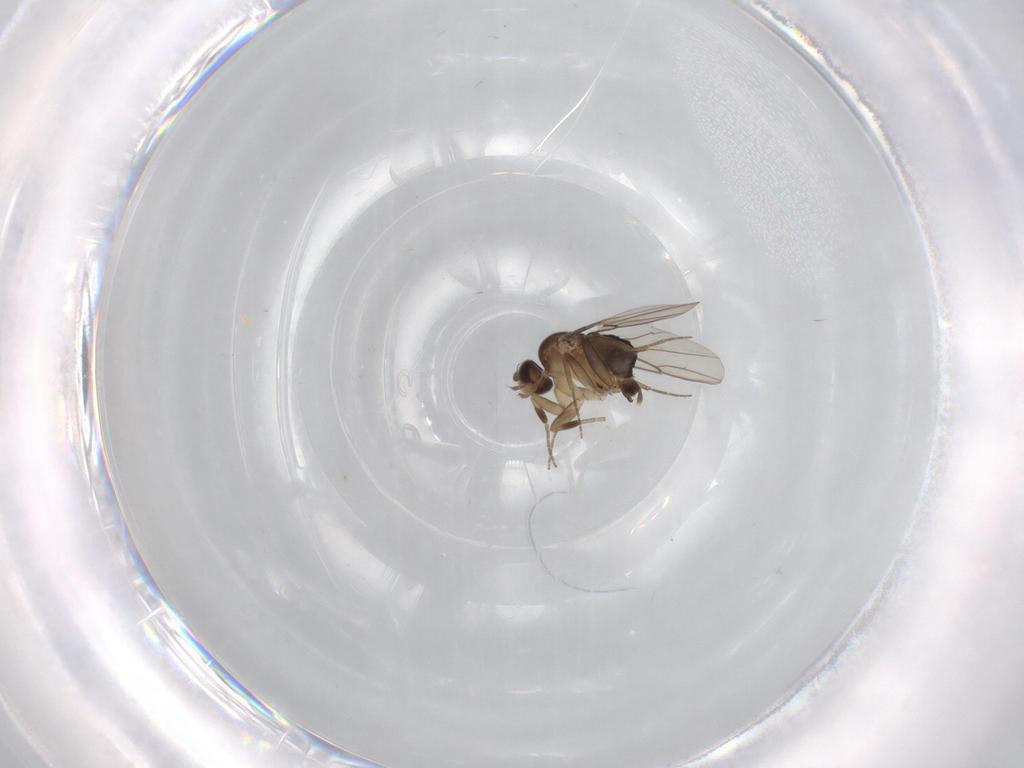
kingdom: Animalia
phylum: Arthropoda
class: Insecta
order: Diptera
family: Phoridae
